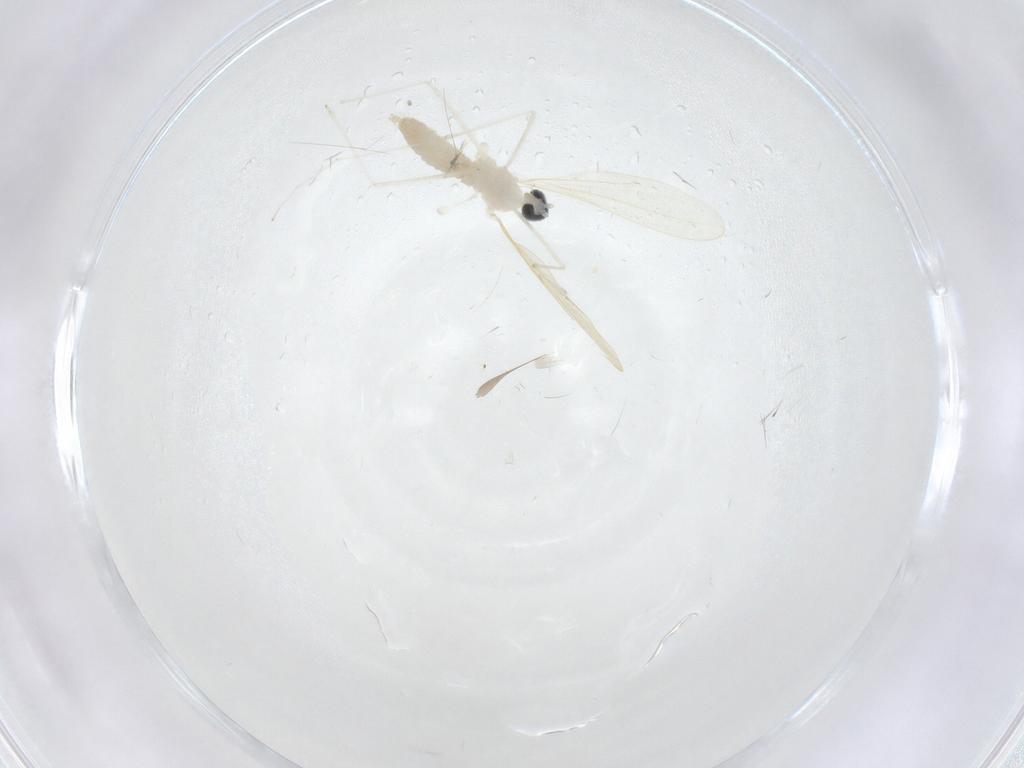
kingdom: Animalia
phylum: Arthropoda
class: Insecta
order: Diptera
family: Cecidomyiidae
